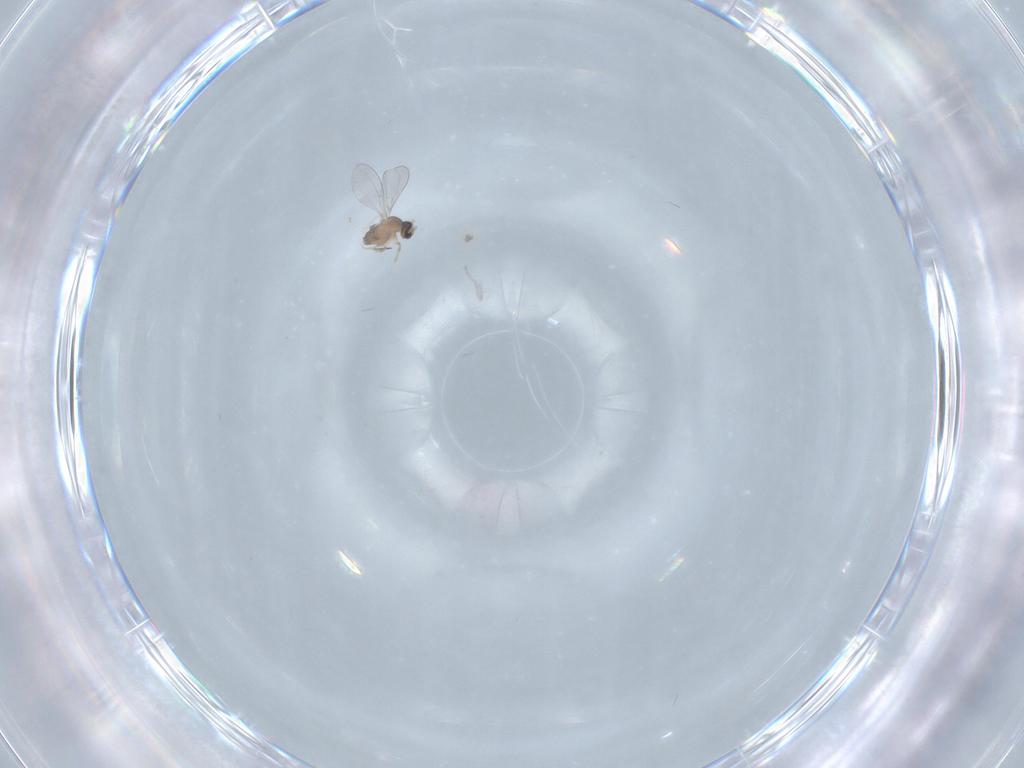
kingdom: Animalia
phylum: Arthropoda
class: Insecta
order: Diptera
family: Cecidomyiidae
